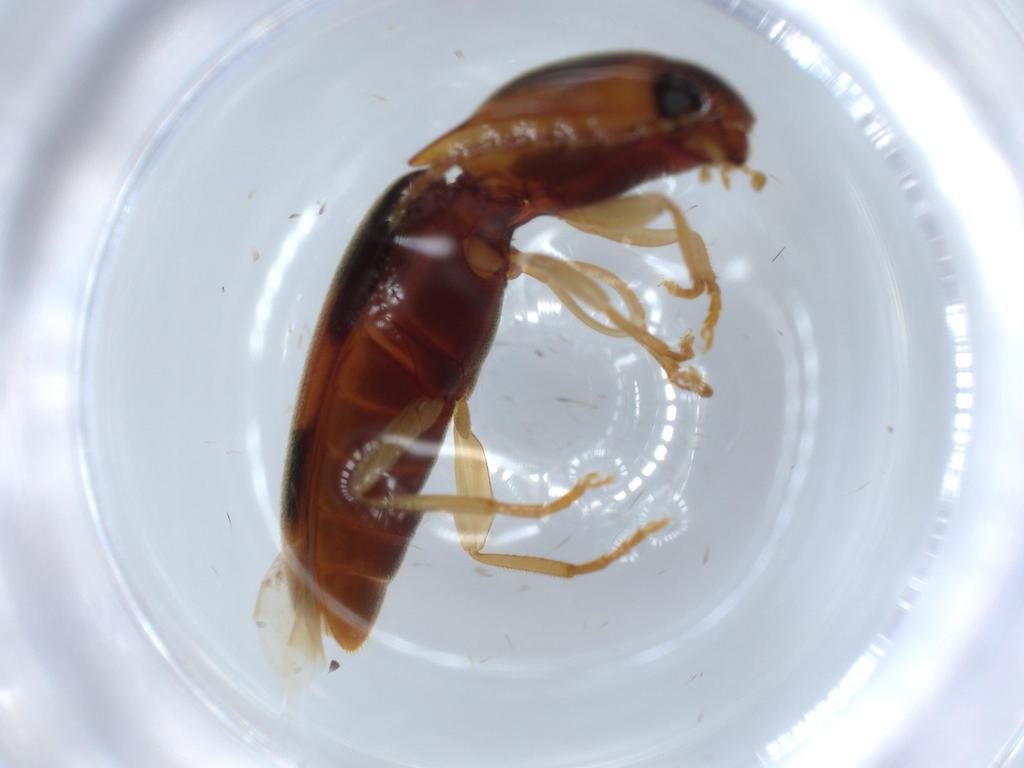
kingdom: Animalia
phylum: Arthropoda
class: Insecta
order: Coleoptera
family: Elateridae
